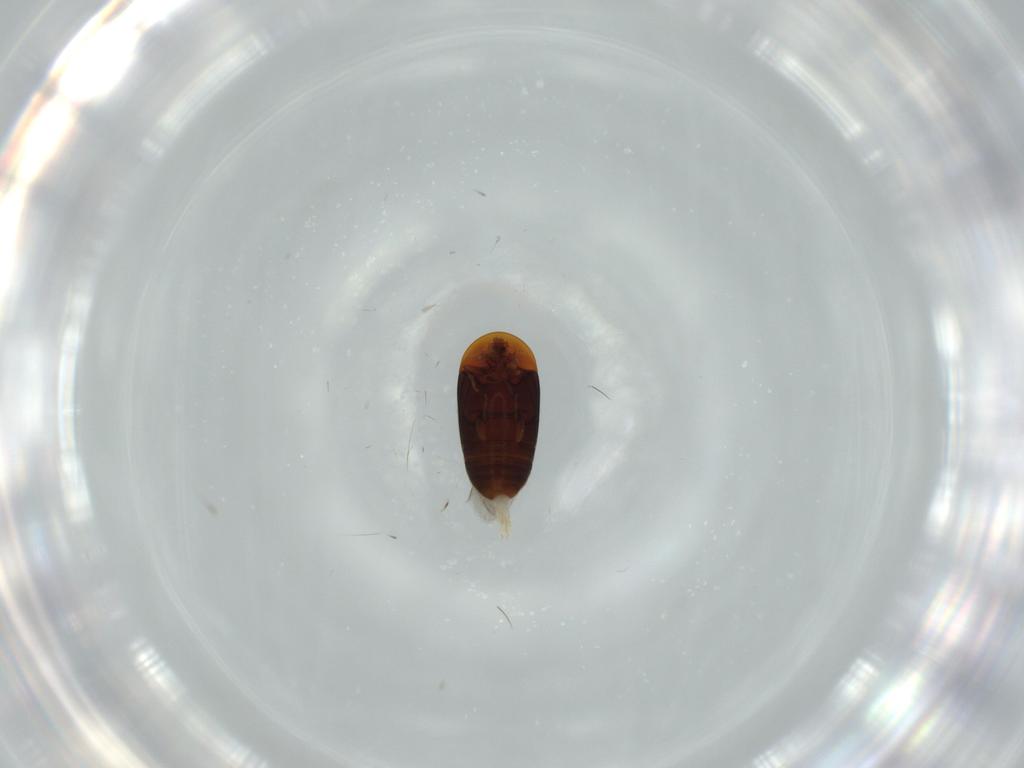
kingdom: Animalia
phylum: Arthropoda
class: Insecta
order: Coleoptera
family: Corylophidae
